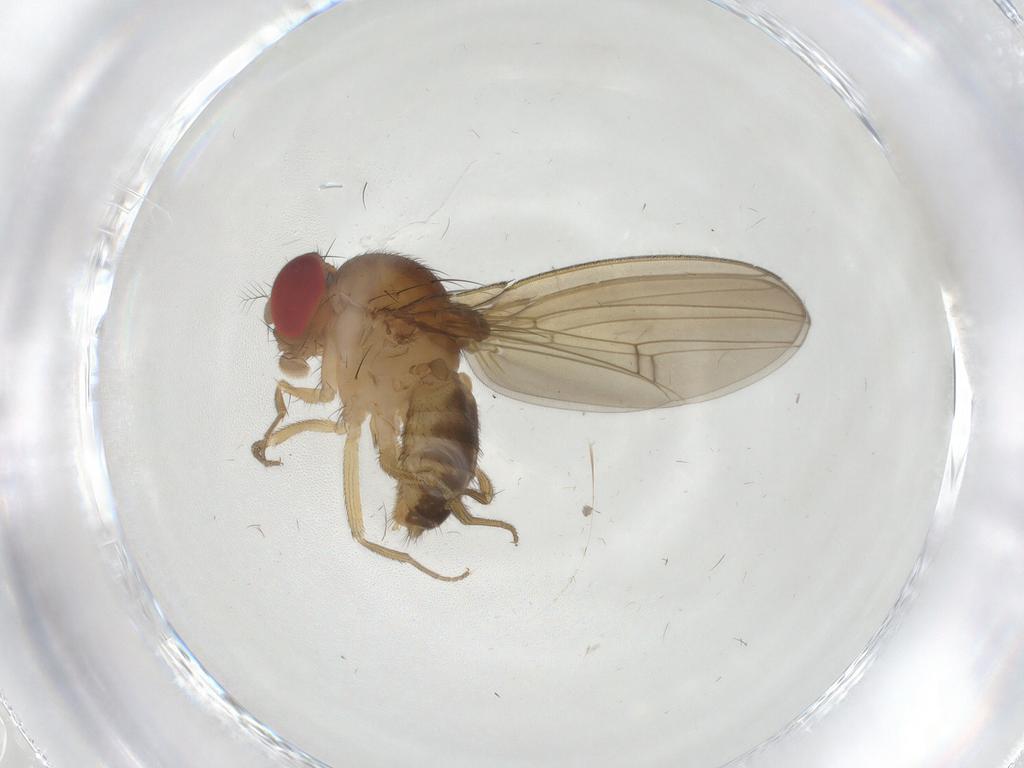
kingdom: Animalia
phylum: Arthropoda
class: Insecta
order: Diptera
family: Drosophilidae
